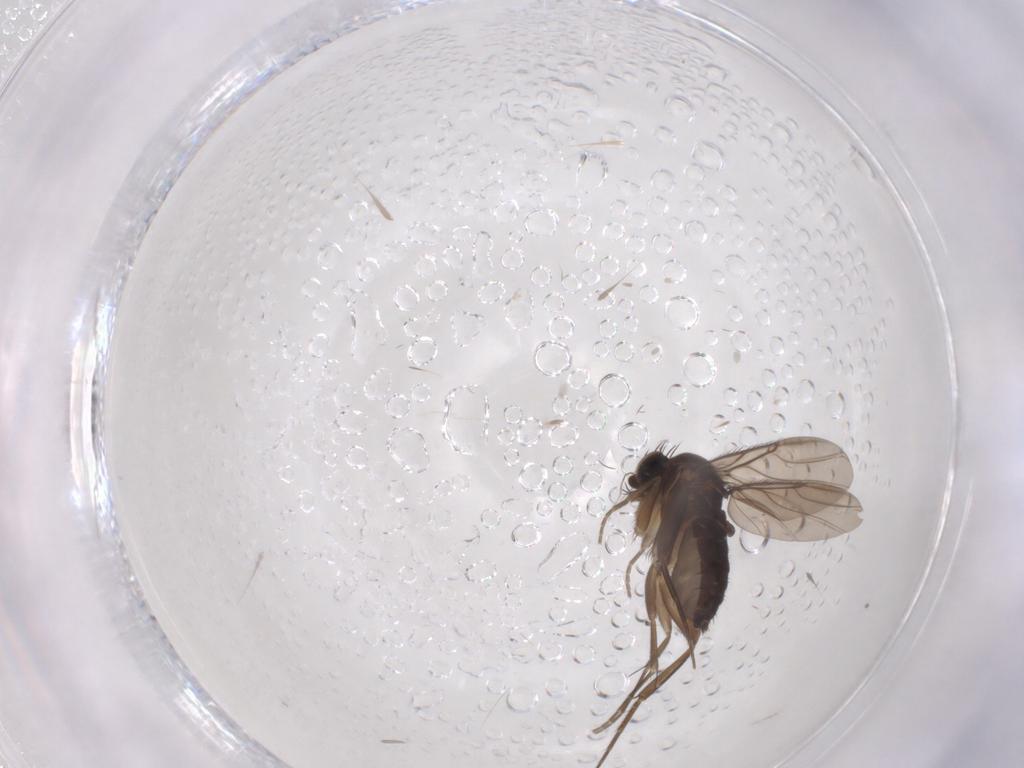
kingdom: Animalia
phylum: Arthropoda
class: Insecta
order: Diptera
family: Phoridae
